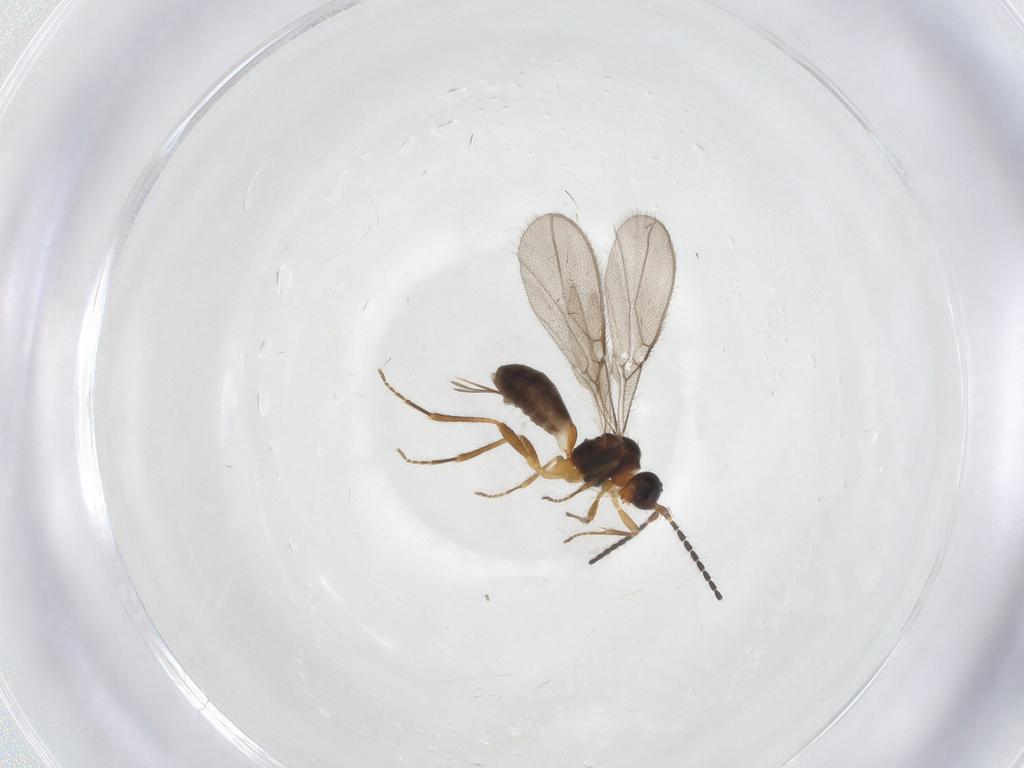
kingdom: Animalia
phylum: Arthropoda
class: Insecta
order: Hymenoptera
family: Braconidae
